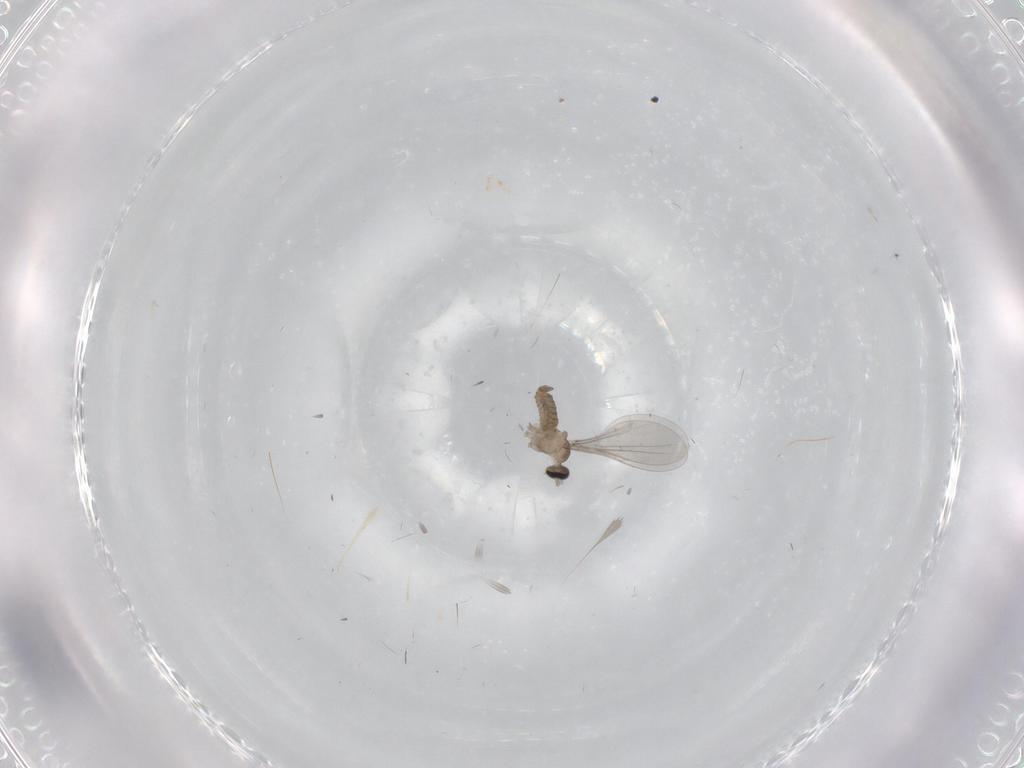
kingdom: Animalia
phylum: Arthropoda
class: Insecta
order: Diptera
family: Cecidomyiidae
